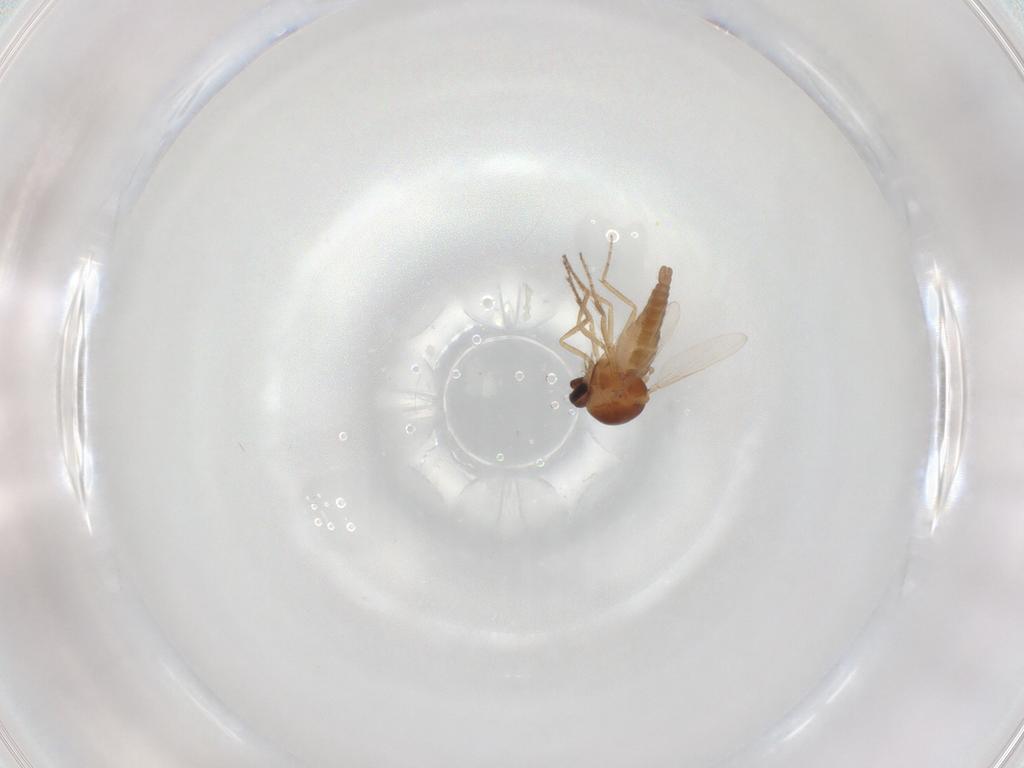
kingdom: Animalia
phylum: Arthropoda
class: Insecta
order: Diptera
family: Ceratopogonidae
